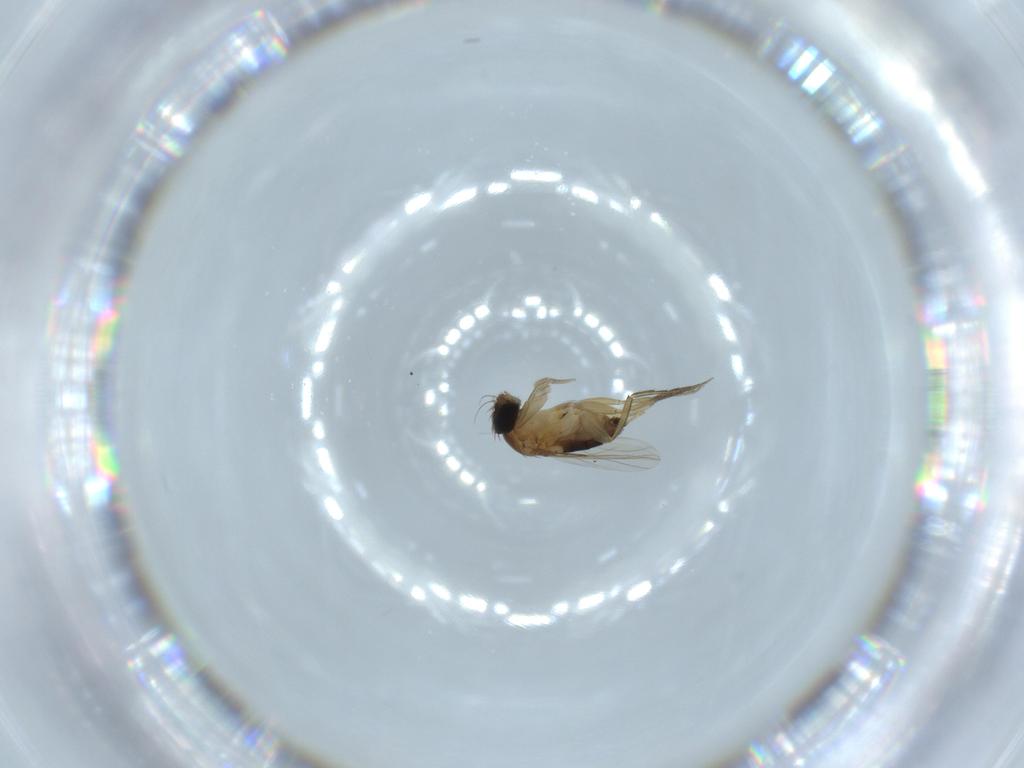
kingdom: Animalia
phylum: Arthropoda
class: Insecta
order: Diptera
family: Phoridae
